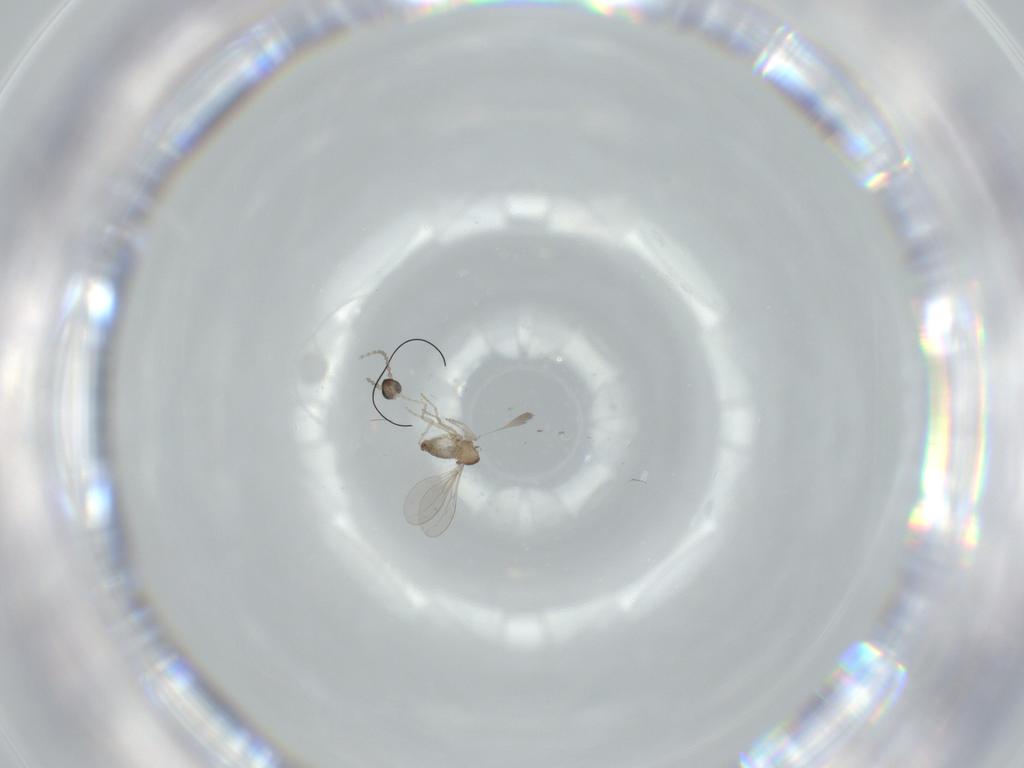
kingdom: Animalia
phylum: Arthropoda
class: Insecta
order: Diptera
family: Cecidomyiidae
